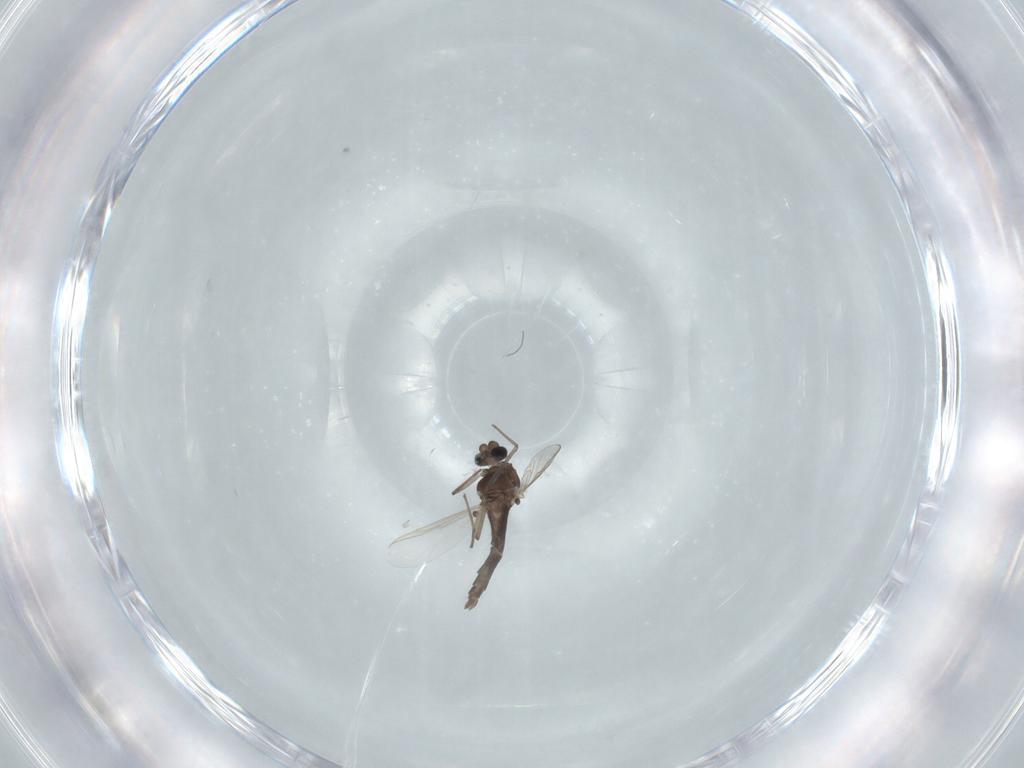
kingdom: Animalia
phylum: Arthropoda
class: Insecta
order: Diptera
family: Chironomidae
